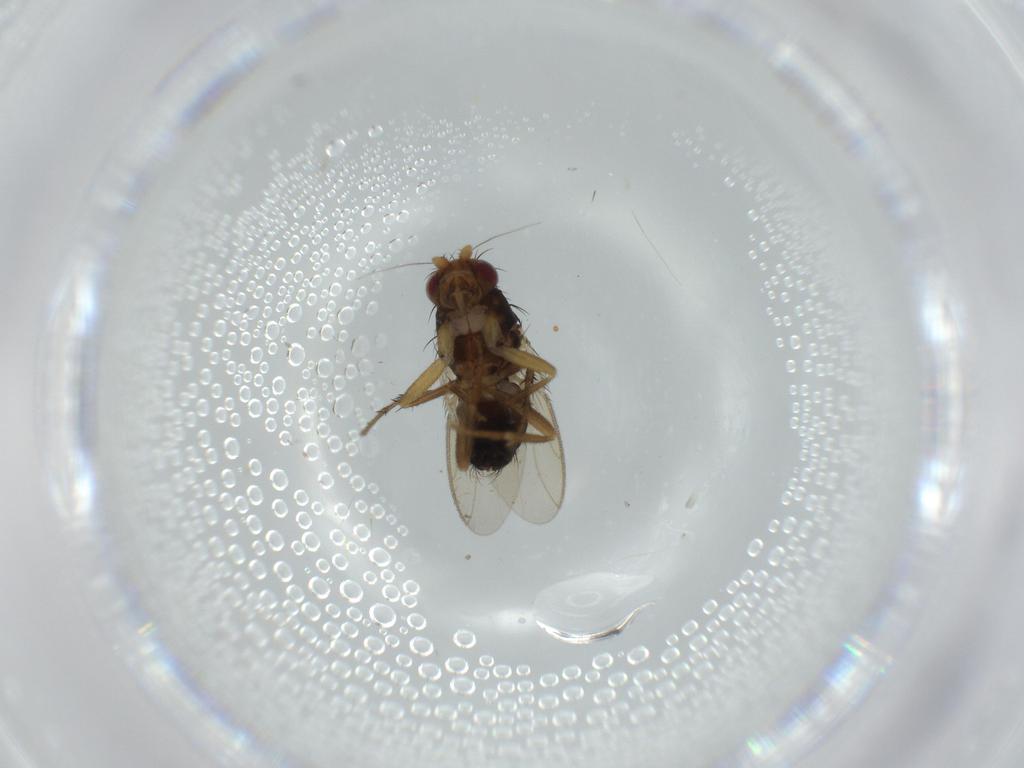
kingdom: Animalia
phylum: Arthropoda
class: Insecta
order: Diptera
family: Sphaeroceridae
